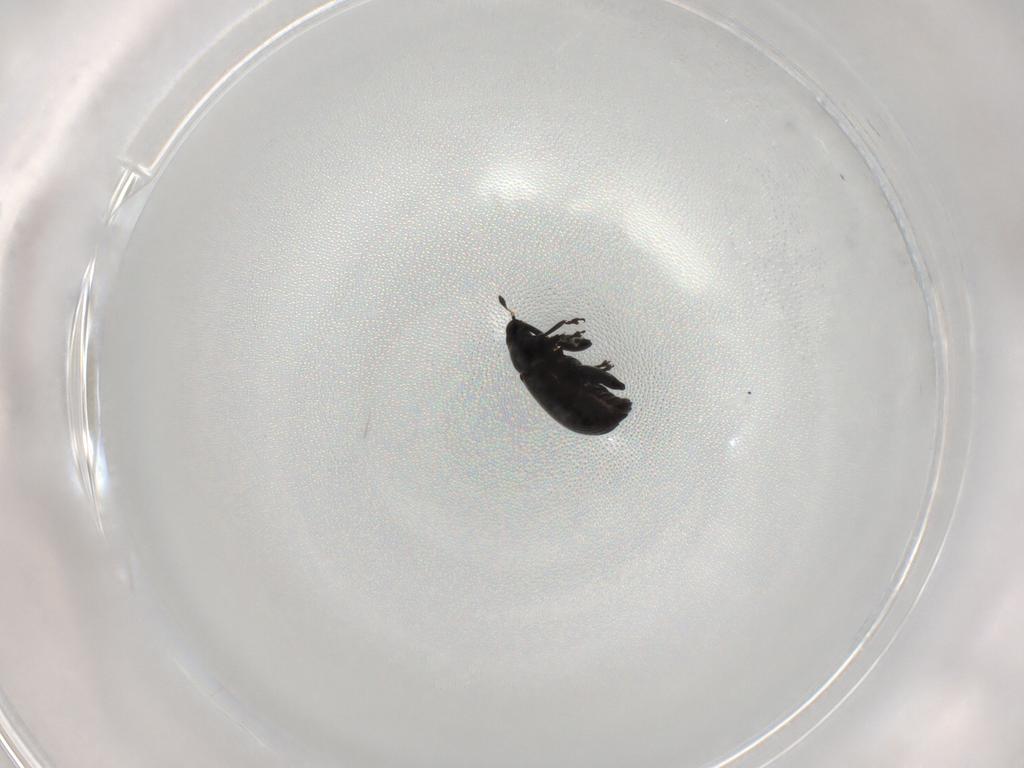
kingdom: Animalia
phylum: Arthropoda
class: Insecta
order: Coleoptera
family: Curculionidae
